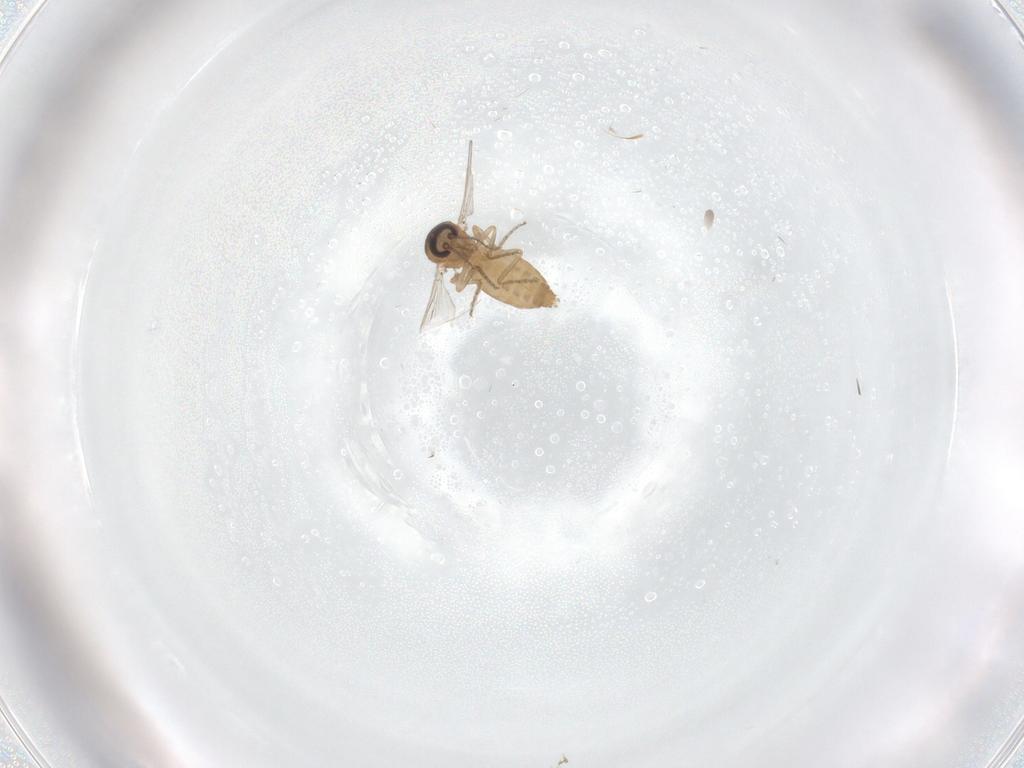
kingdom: Animalia
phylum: Arthropoda
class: Insecta
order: Diptera
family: Ceratopogonidae
